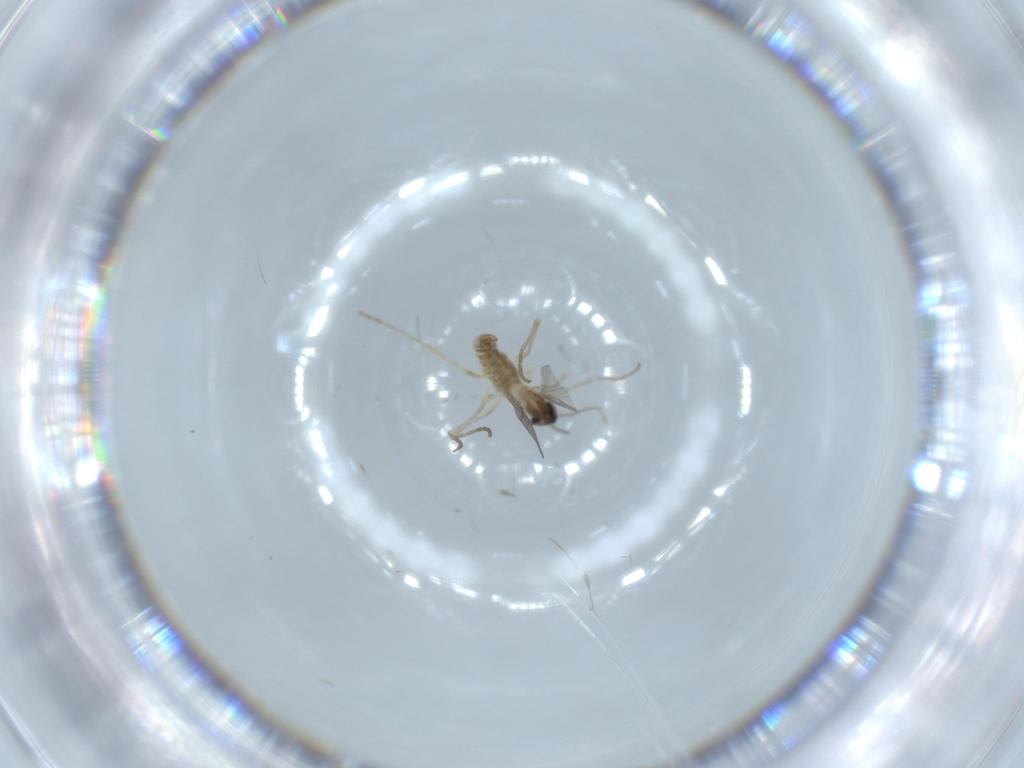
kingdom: Animalia
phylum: Arthropoda
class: Insecta
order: Diptera
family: Cecidomyiidae
